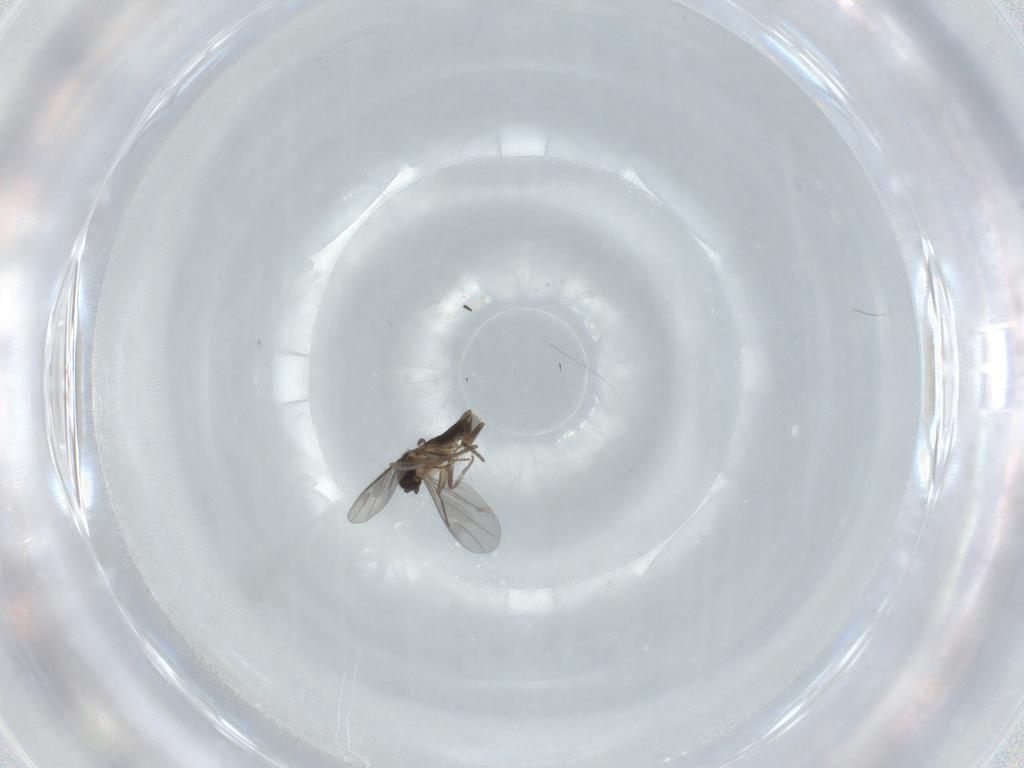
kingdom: Animalia
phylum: Arthropoda
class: Insecta
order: Diptera
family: Psychodidae
